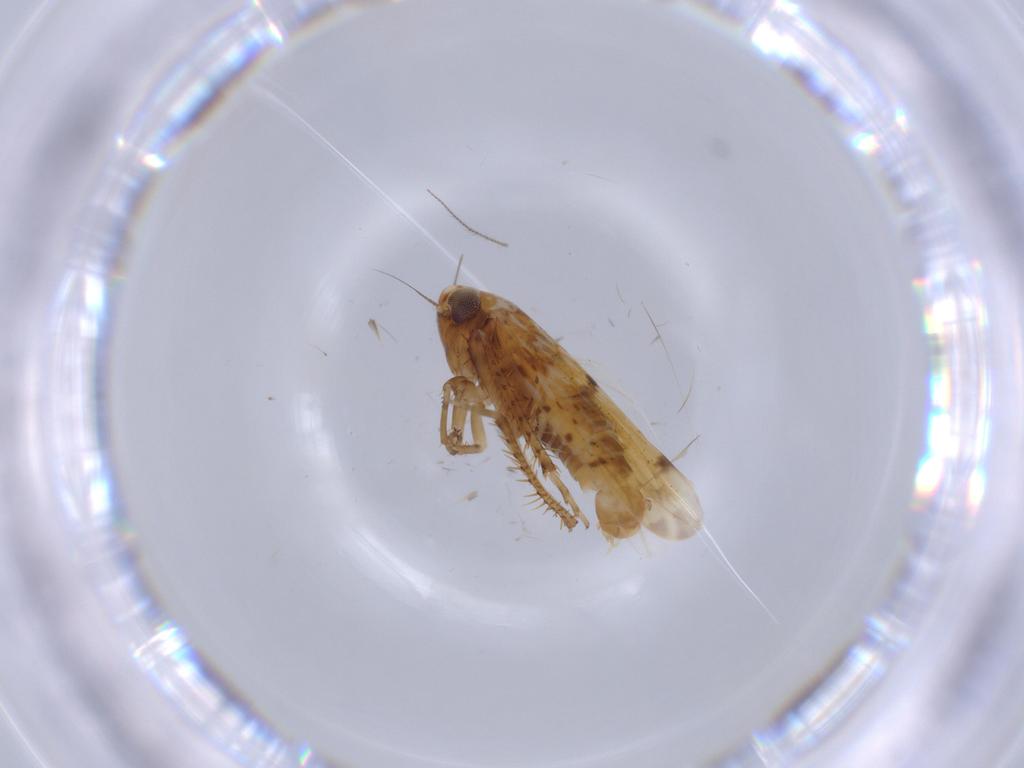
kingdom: Animalia
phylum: Arthropoda
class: Insecta
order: Hemiptera
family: Cicadellidae
